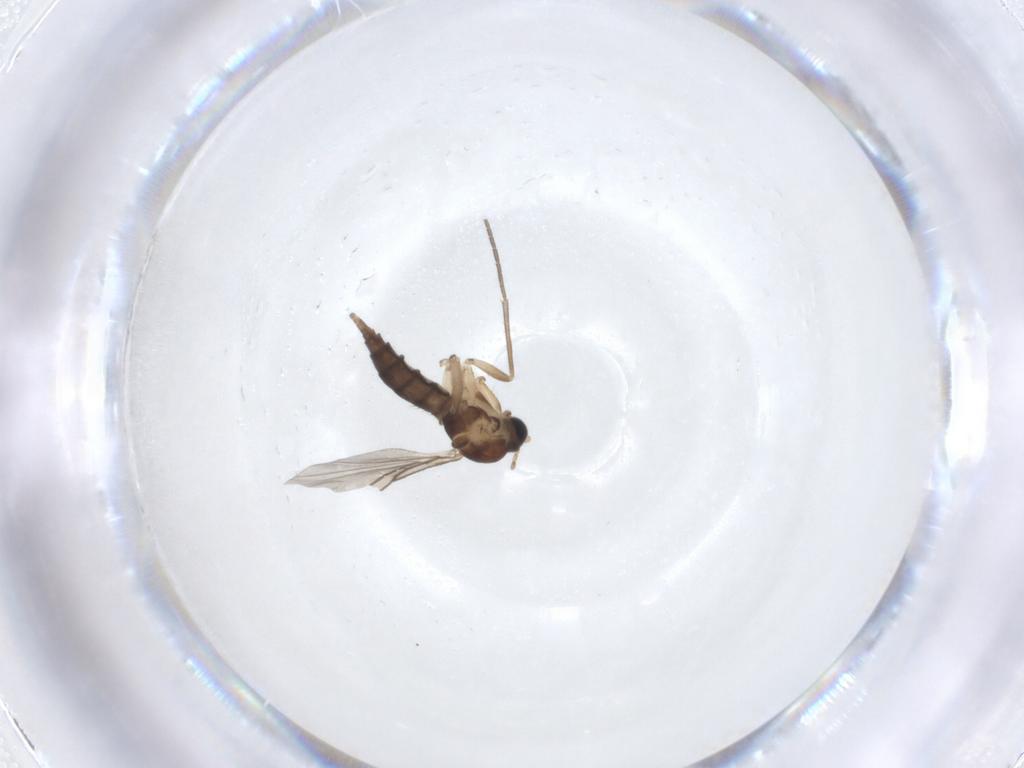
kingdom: Animalia
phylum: Arthropoda
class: Insecta
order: Diptera
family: Sciaridae
